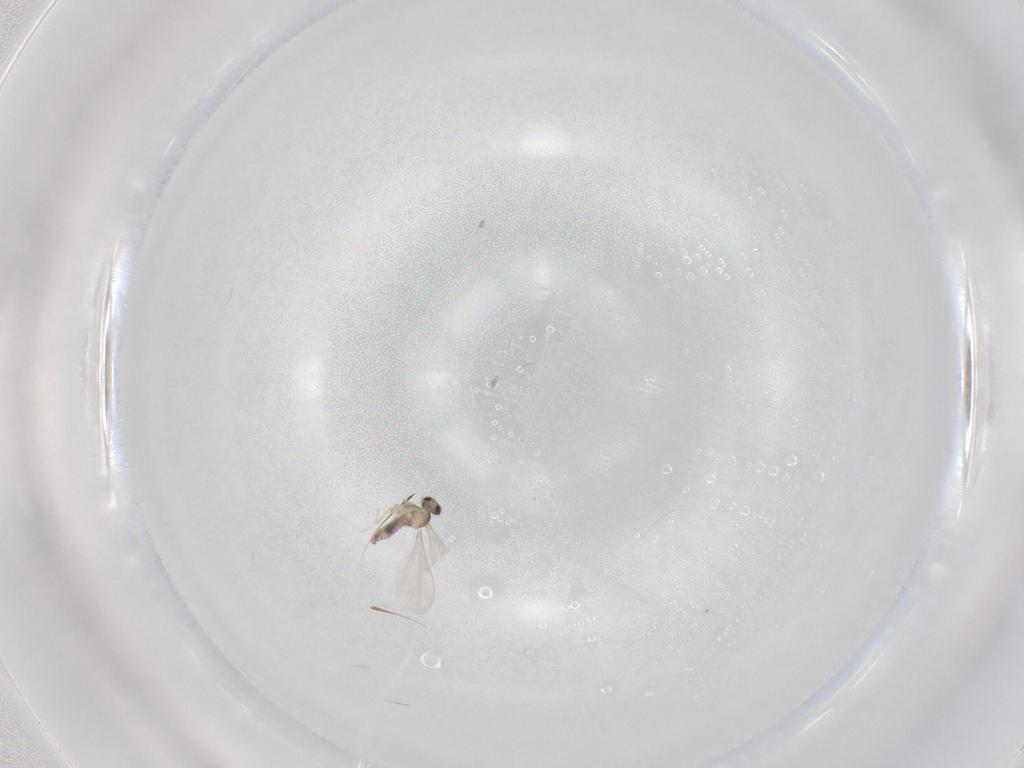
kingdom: Animalia
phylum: Arthropoda
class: Insecta
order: Diptera
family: Cecidomyiidae
